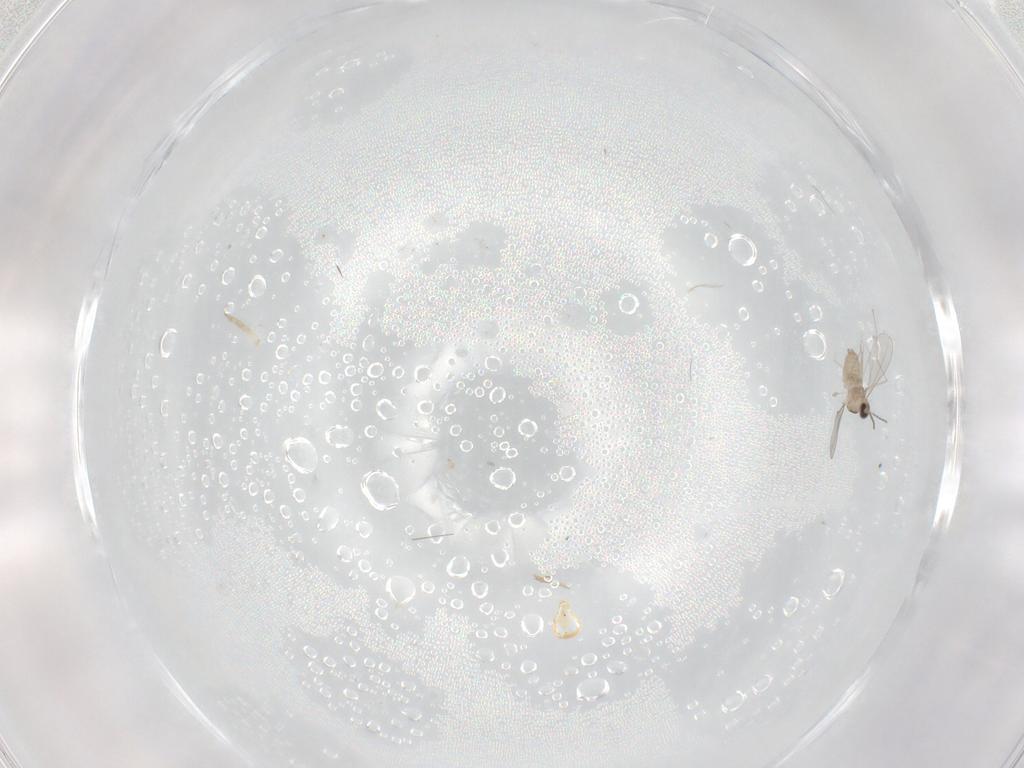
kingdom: Animalia
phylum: Arthropoda
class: Insecta
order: Diptera
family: Cecidomyiidae
